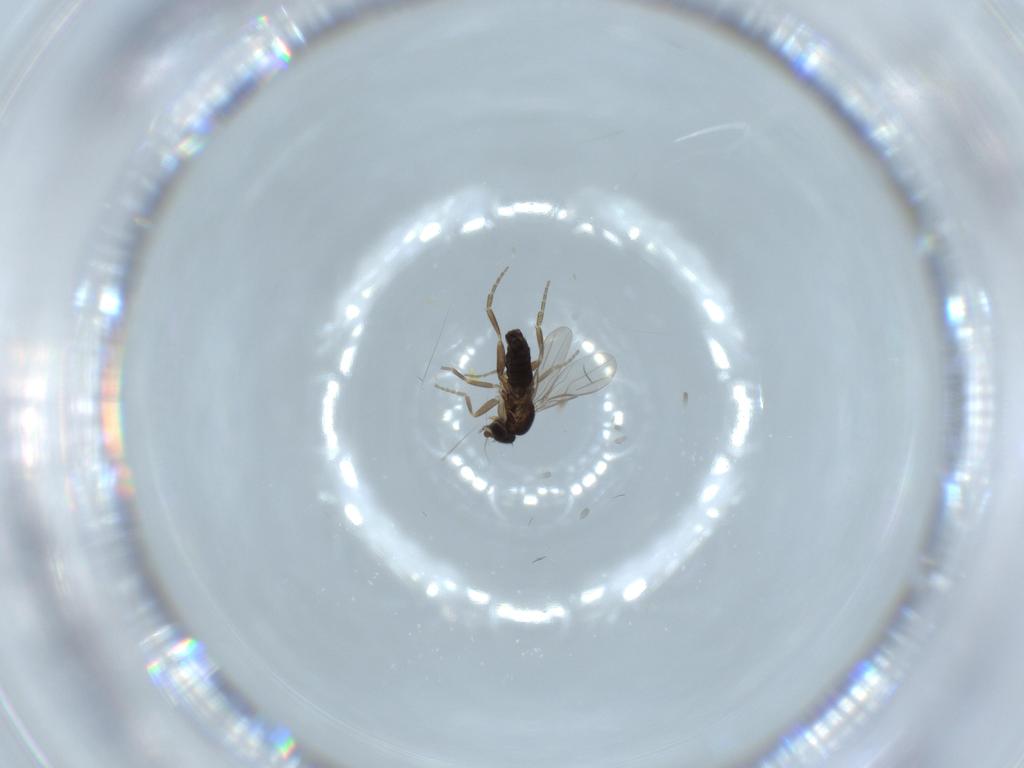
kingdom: Animalia
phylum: Arthropoda
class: Insecta
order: Diptera
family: Phoridae
